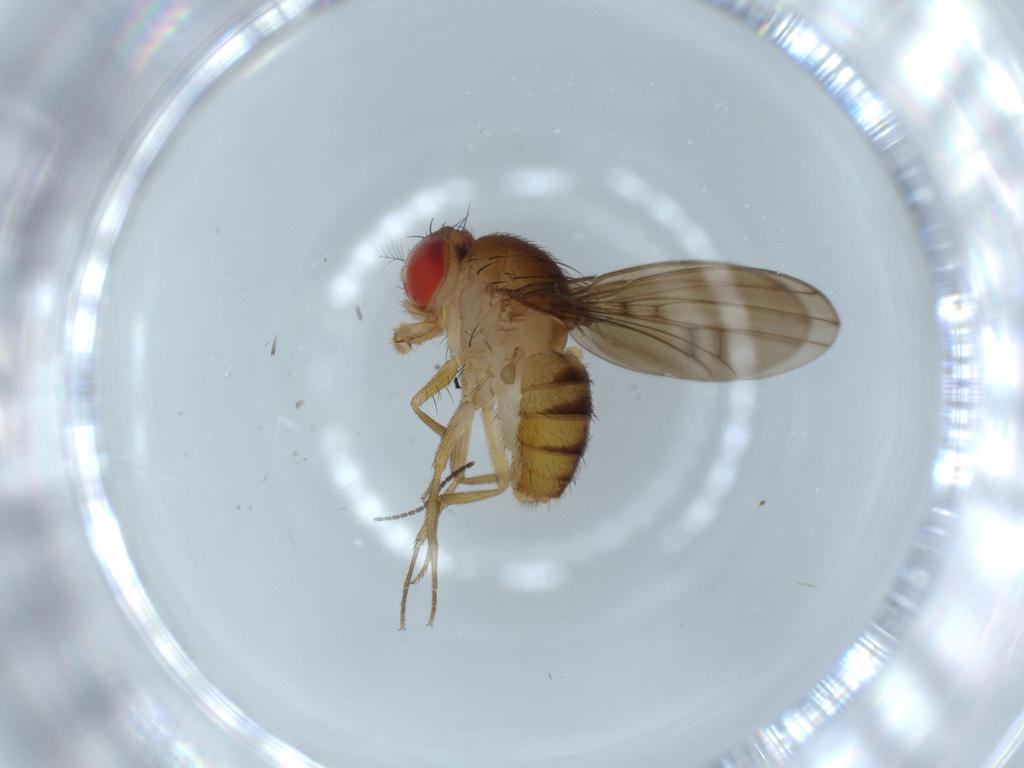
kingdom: Animalia
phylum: Arthropoda
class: Insecta
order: Diptera
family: Drosophilidae
